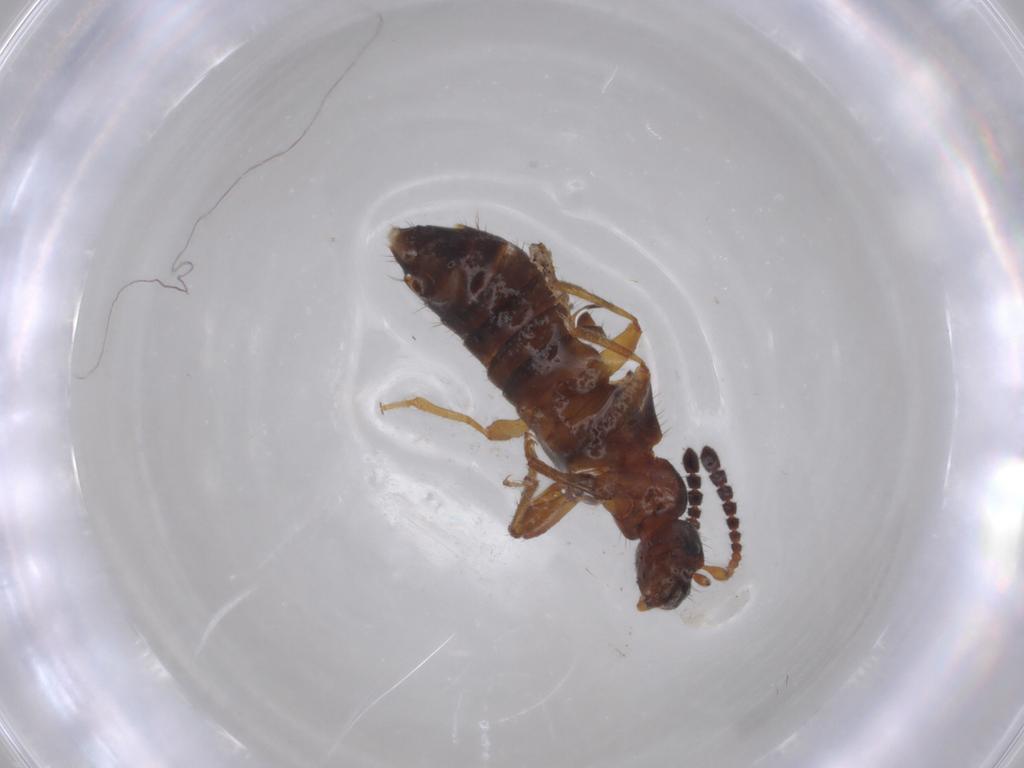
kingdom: Animalia
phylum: Arthropoda
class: Insecta
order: Coleoptera
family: Staphylinidae
